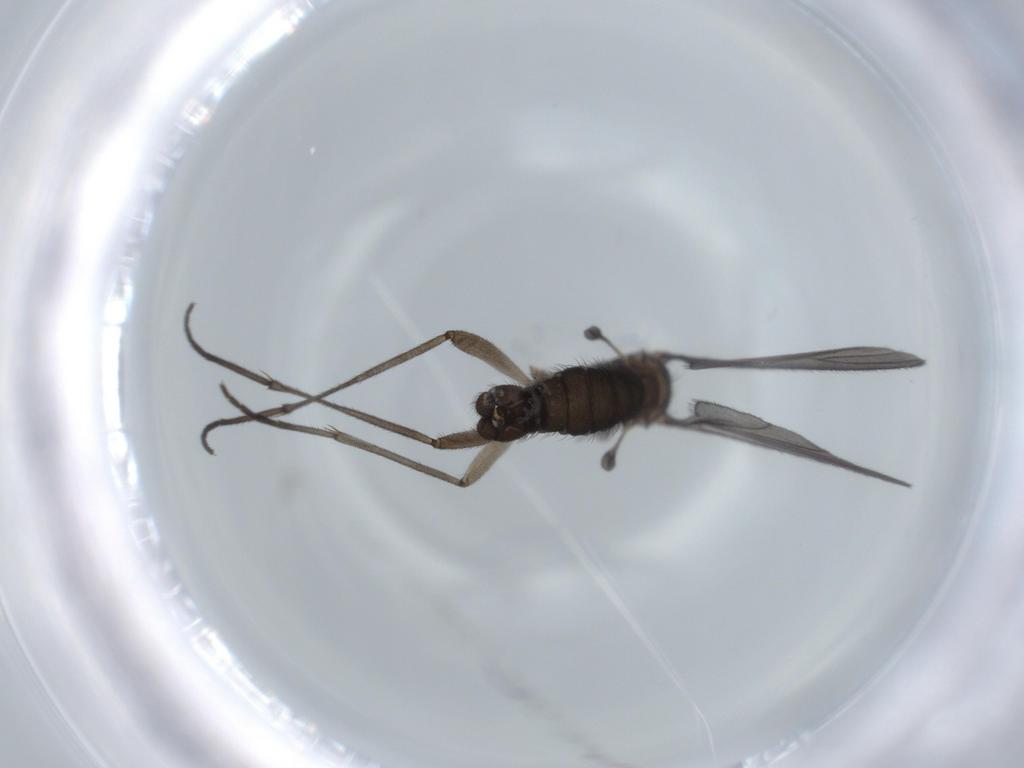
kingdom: Animalia
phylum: Arthropoda
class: Insecta
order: Diptera
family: Sciaridae
